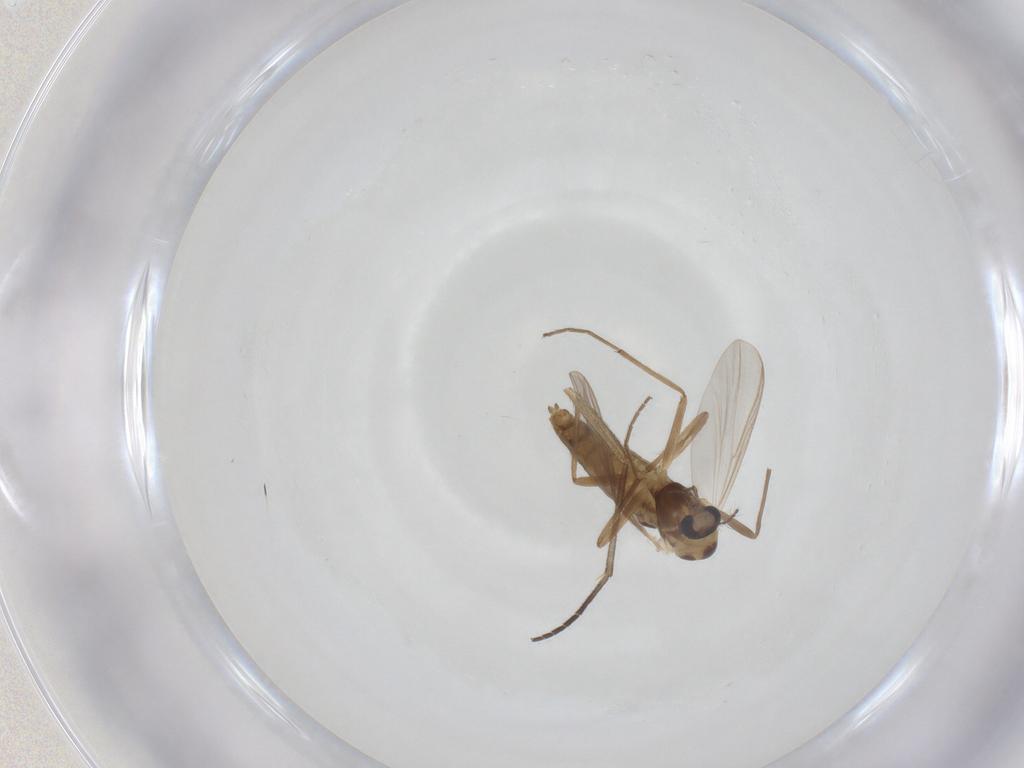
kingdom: Animalia
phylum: Arthropoda
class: Insecta
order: Diptera
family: Chironomidae
